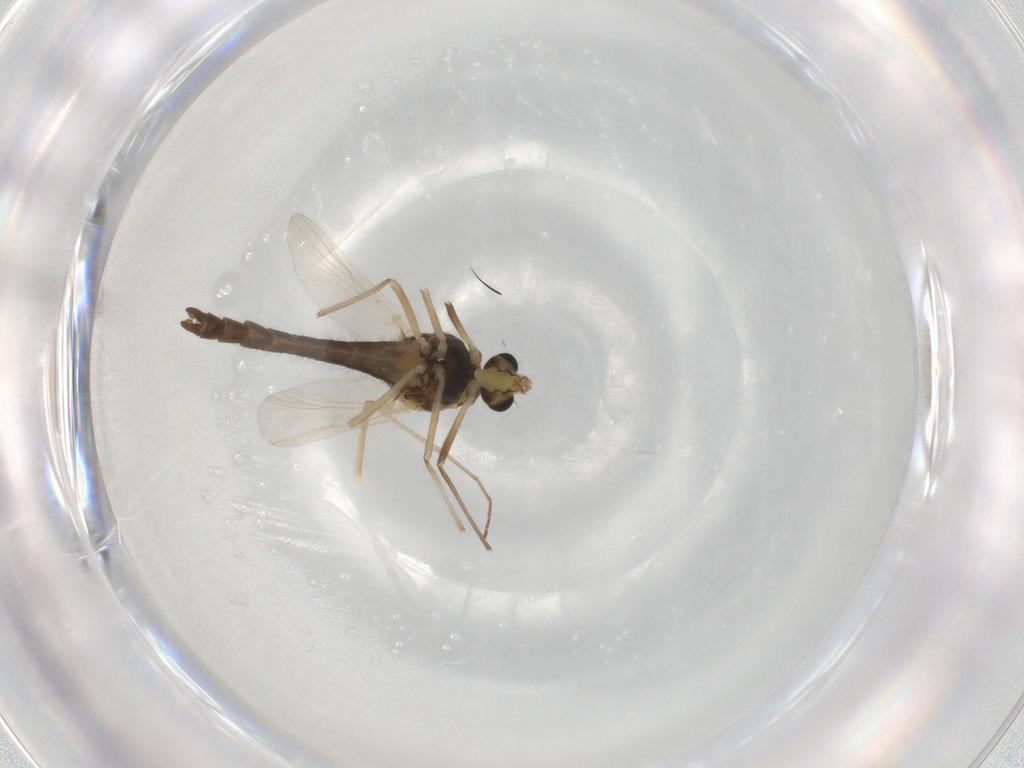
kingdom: Animalia
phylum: Arthropoda
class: Insecta
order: Diptera
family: Chironomidae
